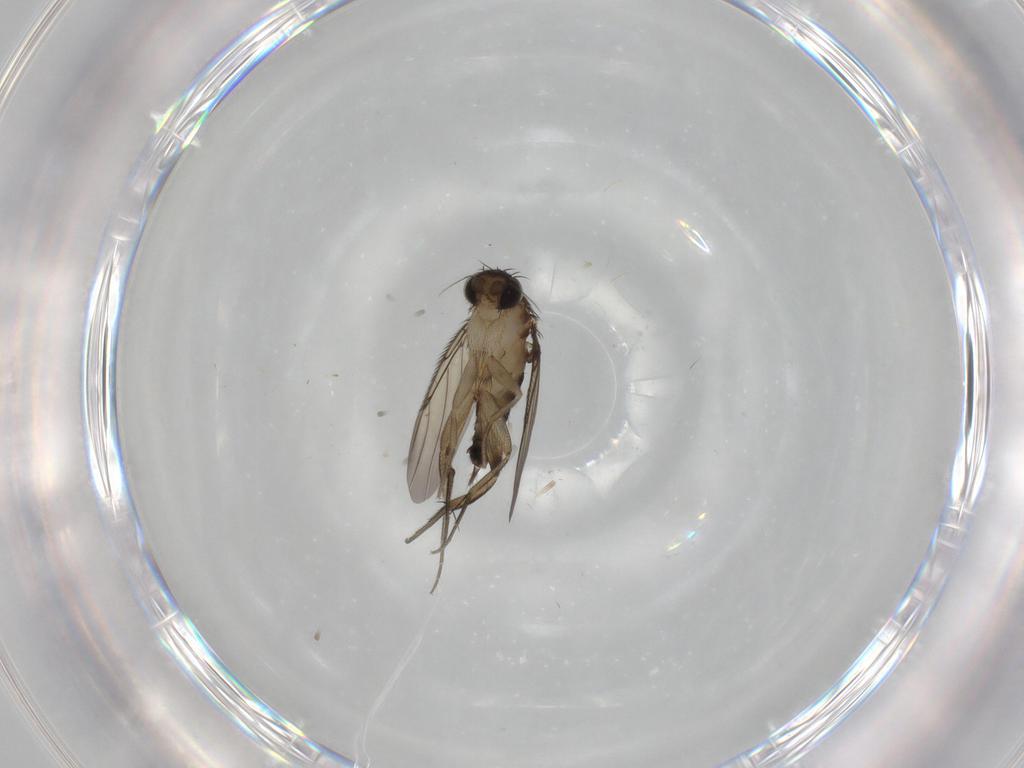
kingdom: Animalia
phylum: Arthropoda
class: Insecta
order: Diptera
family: Phoridae
